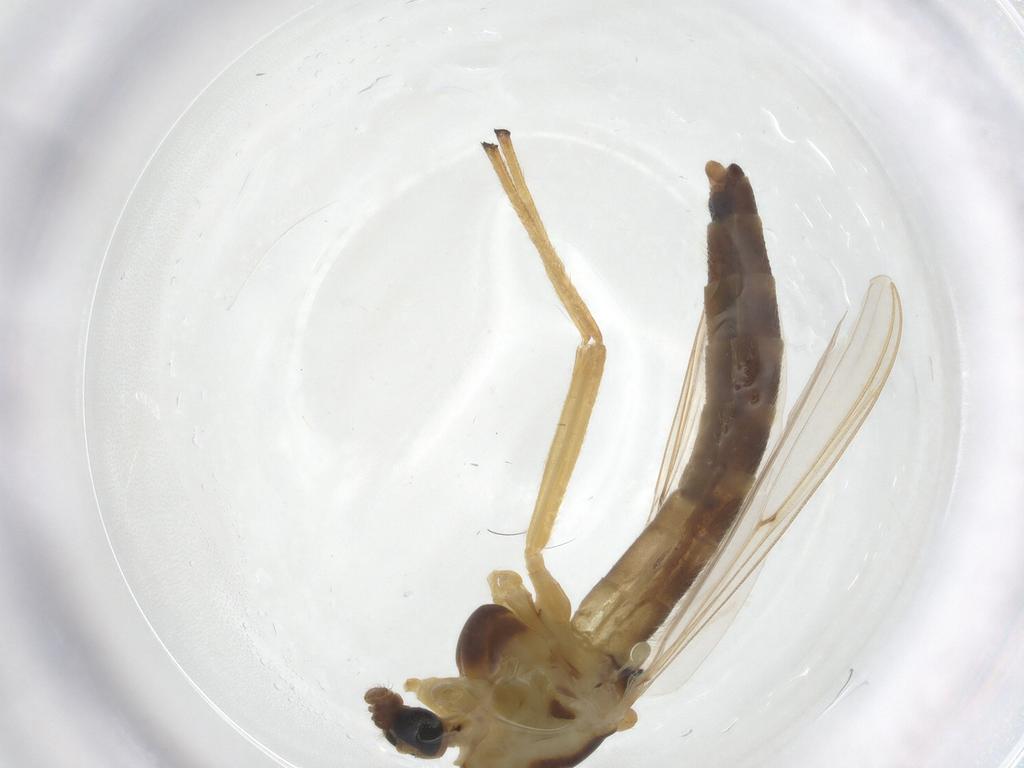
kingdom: Animalia
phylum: Arthropoda
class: Insecta
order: Diptera
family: Chironomidae
